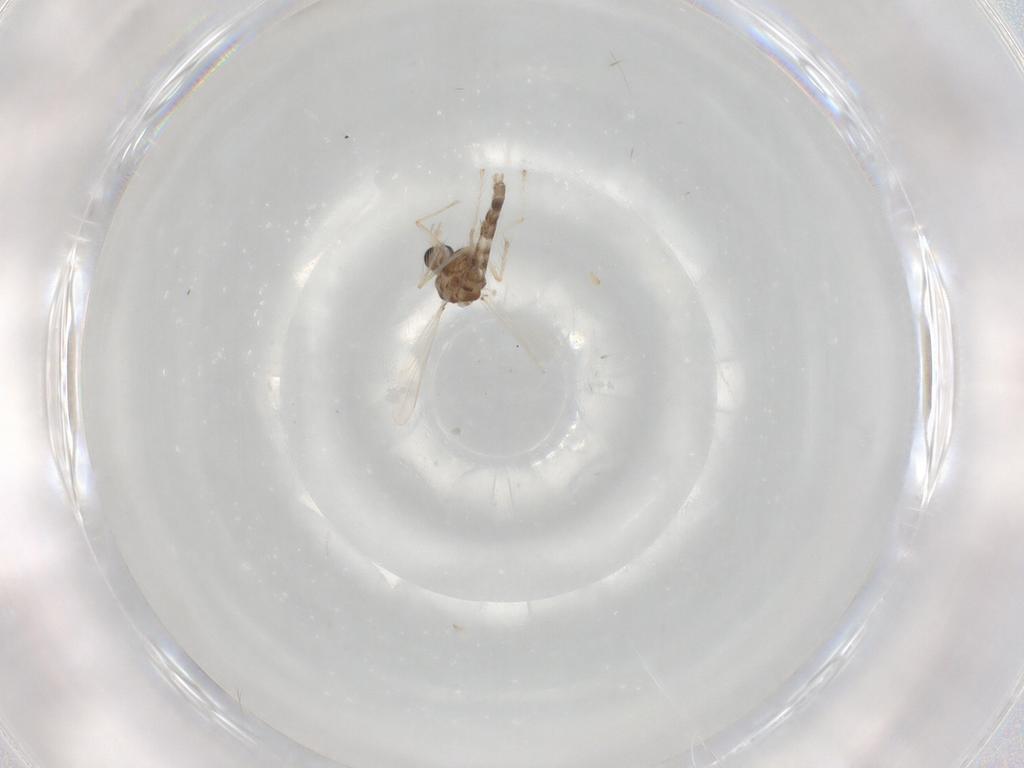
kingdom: Animalia
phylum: Arthropoda
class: Insecta
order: Diptera
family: Chironomidae
